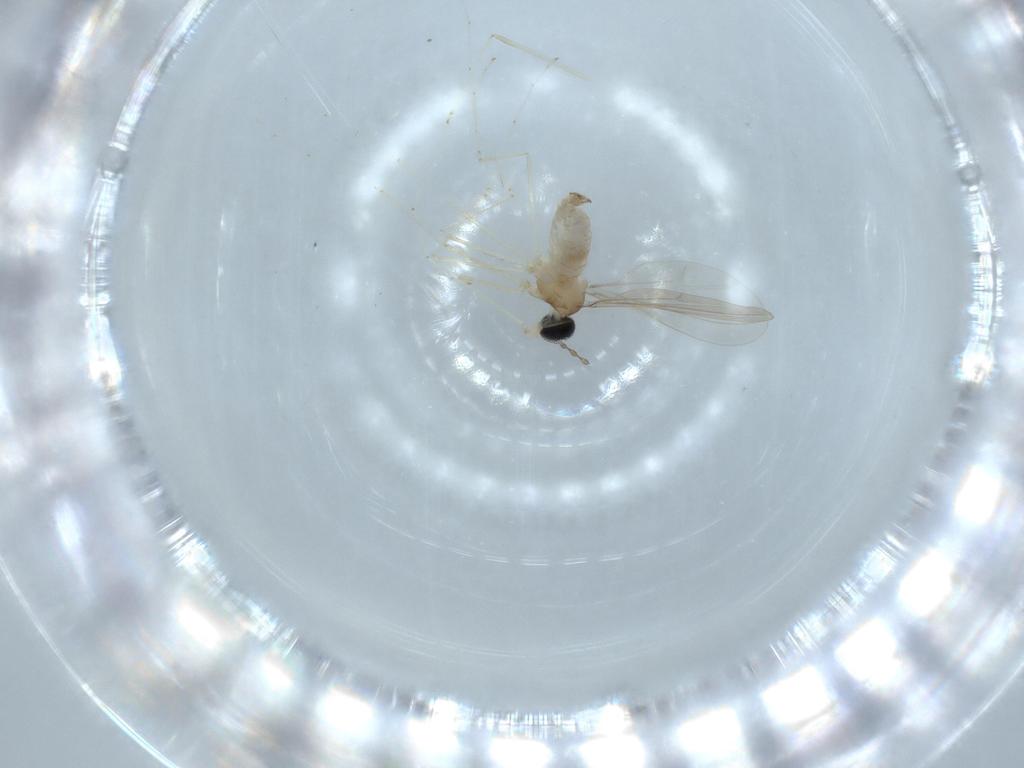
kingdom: Animalia
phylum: Arthropoda
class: Insecta
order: Diptera
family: Cecidomyiidae
